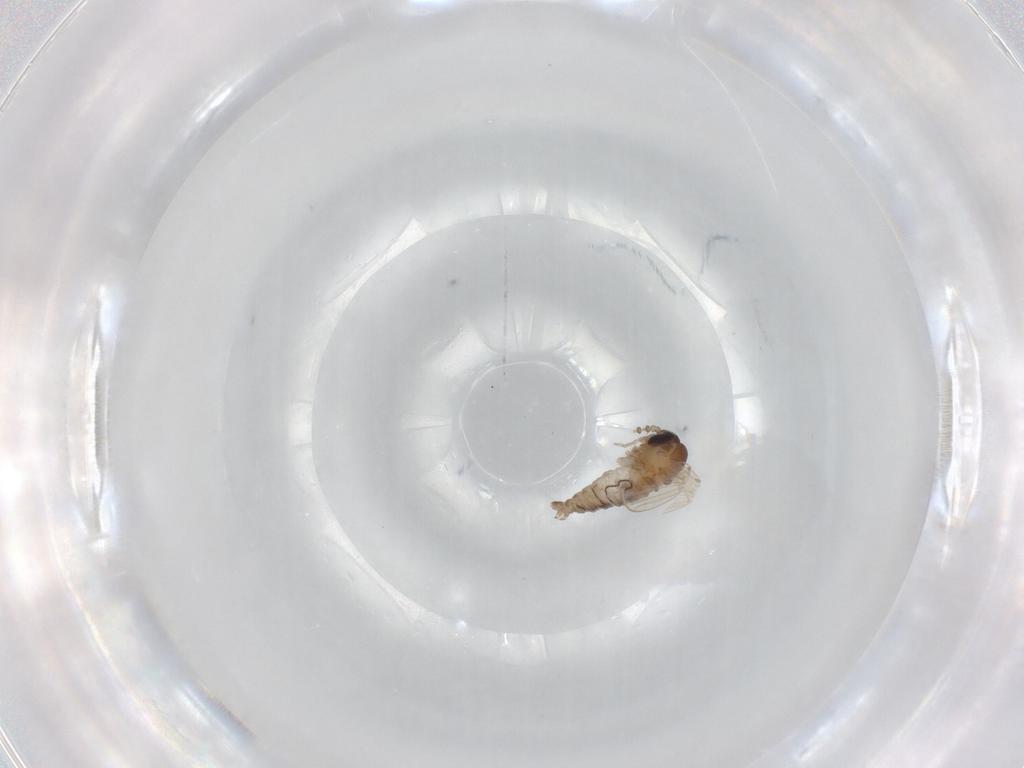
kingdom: Animalia
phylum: Arthropoda
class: Insecta
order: Diptera
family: Psychodidae
